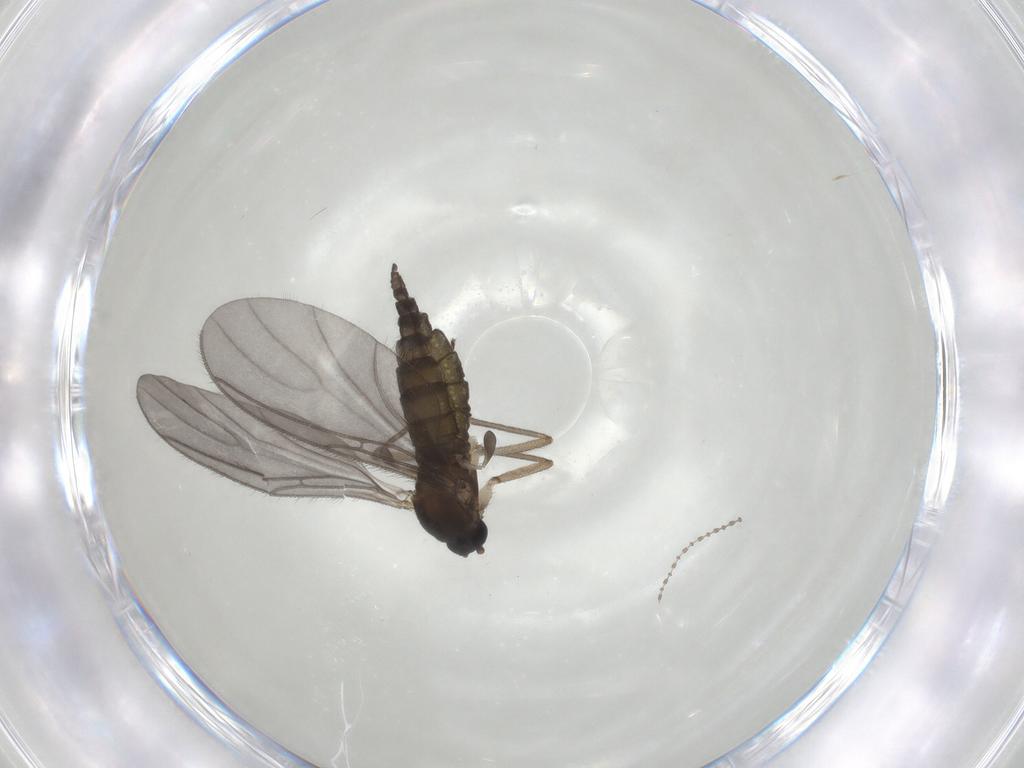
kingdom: Animalia
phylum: Arthropoda
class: Insecta
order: Diptera
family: Sciaridae
